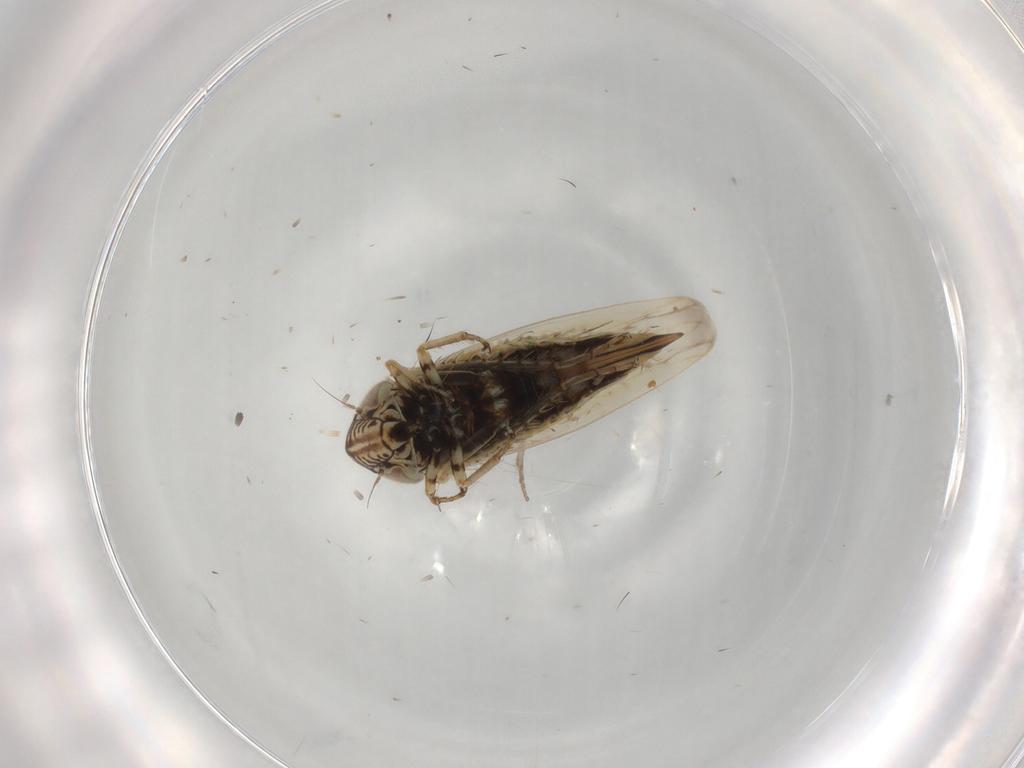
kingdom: Animalia
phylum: Arthropoda
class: Insecta
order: Hemiptera
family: Cicadellidae
